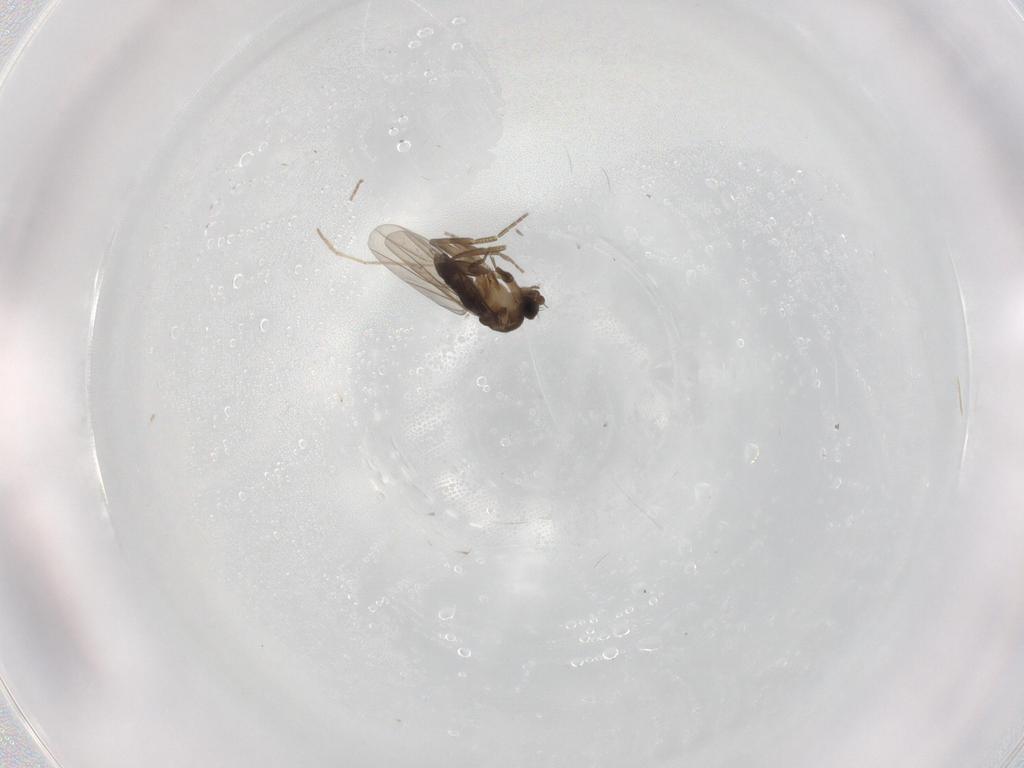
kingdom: Animalia
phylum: Arthropoda
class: Insecta
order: Diptera
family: Phoridae
